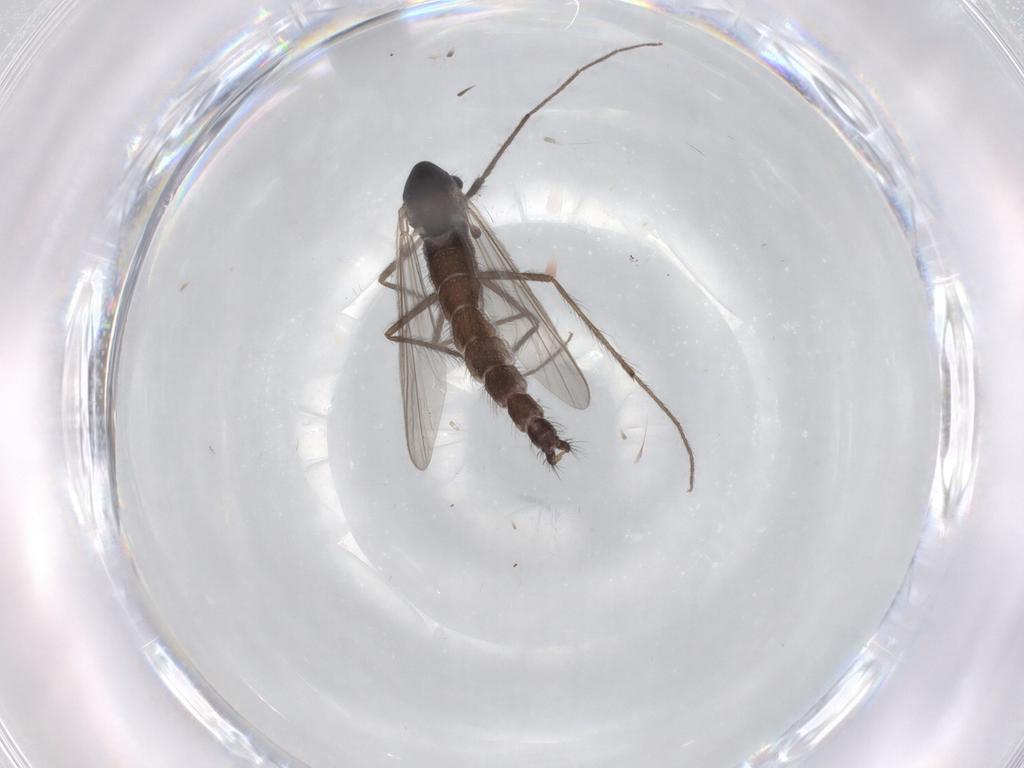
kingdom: Animalia
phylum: Arthropoda
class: Insecta
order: Diptera
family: Chironomidae
